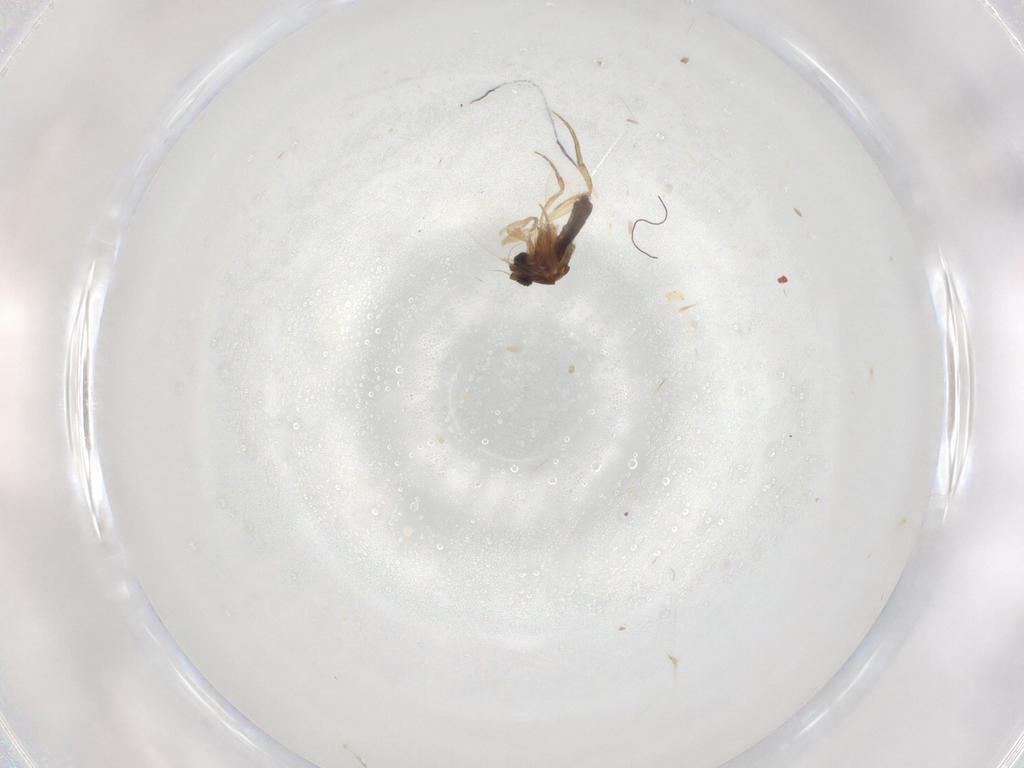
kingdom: Animalia
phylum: Arthropoda
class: Insecta
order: Diptera
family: Phoridae
